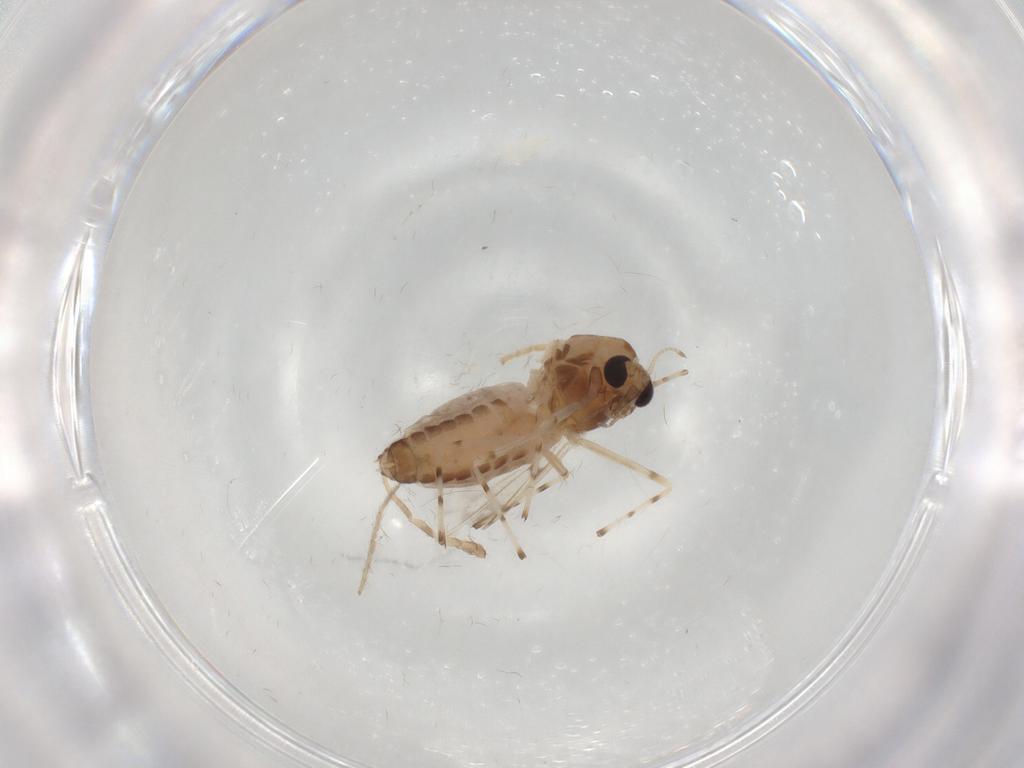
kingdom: Animalia
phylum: Arthropoda
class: Insecta
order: Diptera
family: Chironomidae
